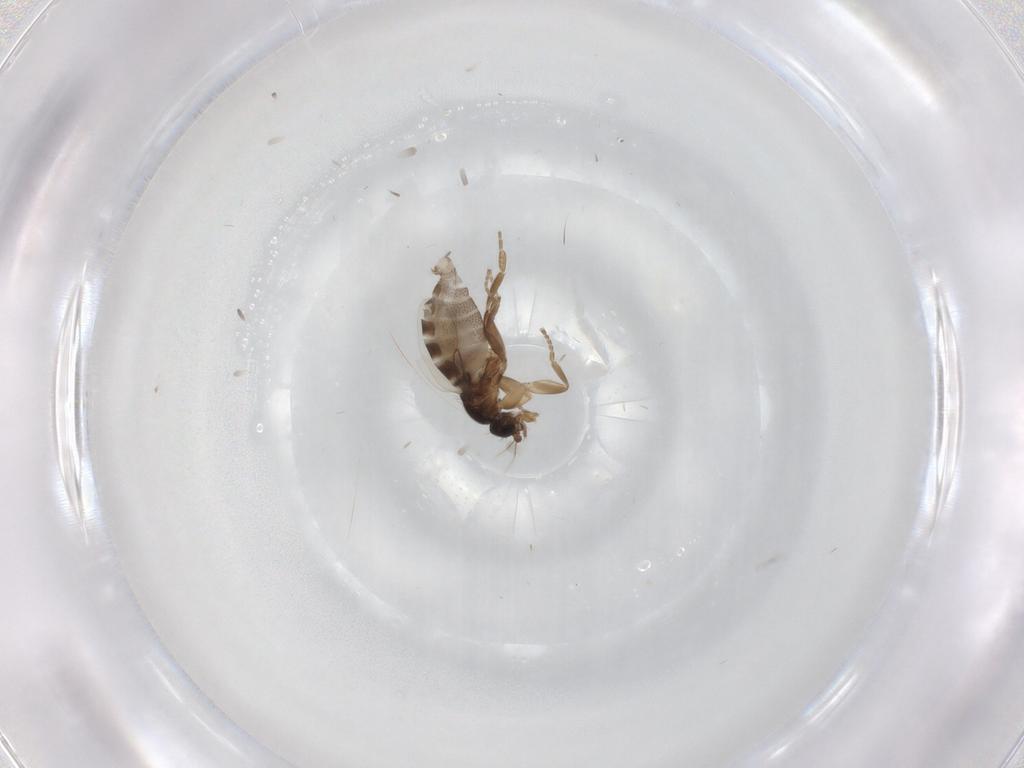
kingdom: Animalia
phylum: Arthropoda
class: Insecta
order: Diptera
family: Phoridae
